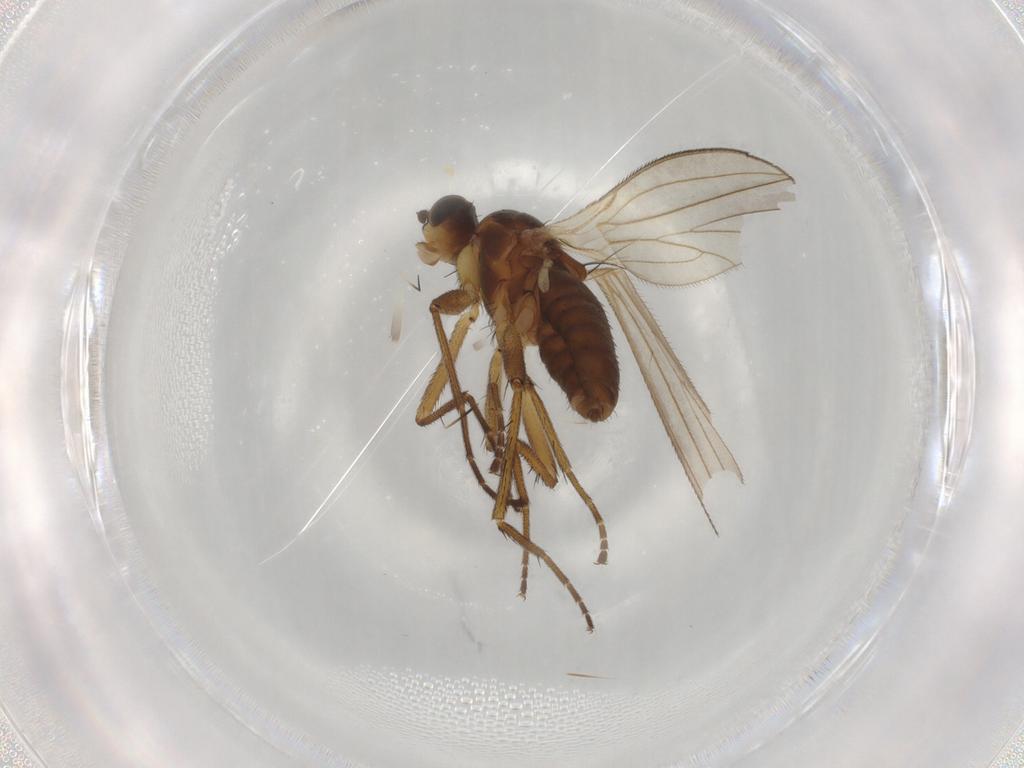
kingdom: Animalia
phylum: Arthropoda
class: Insecta
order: Diptera
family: Lonchopteridae
